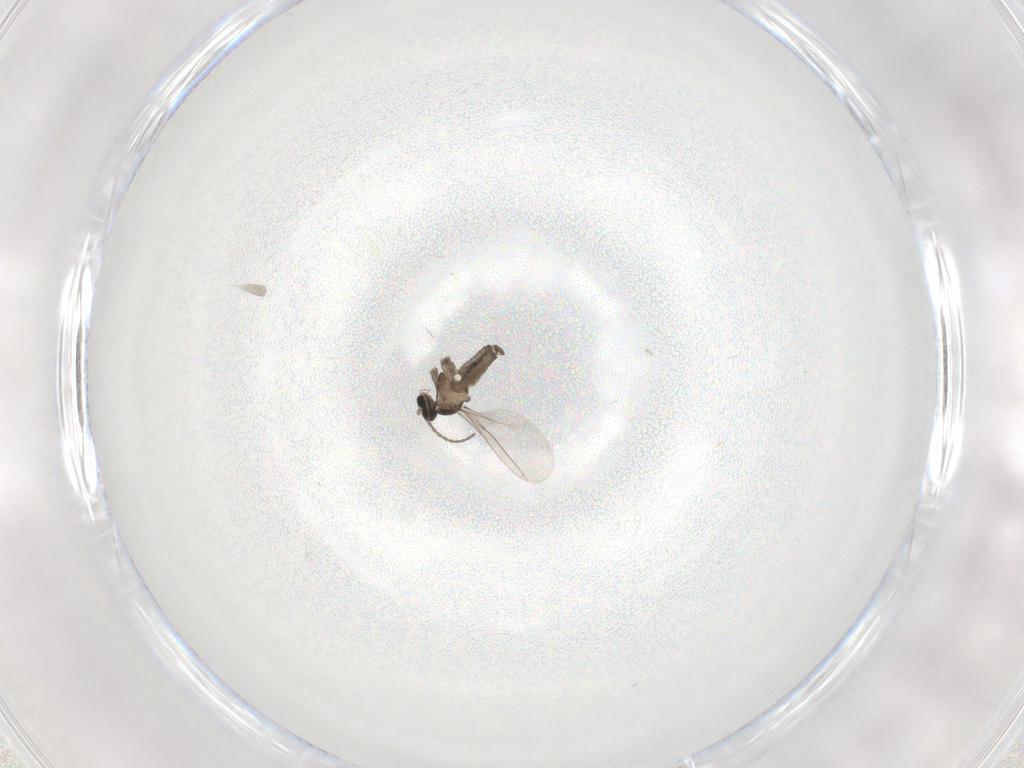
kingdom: Animalia
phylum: Arthropoda
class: Insecta
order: Diptera
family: Cecidomyiidae
